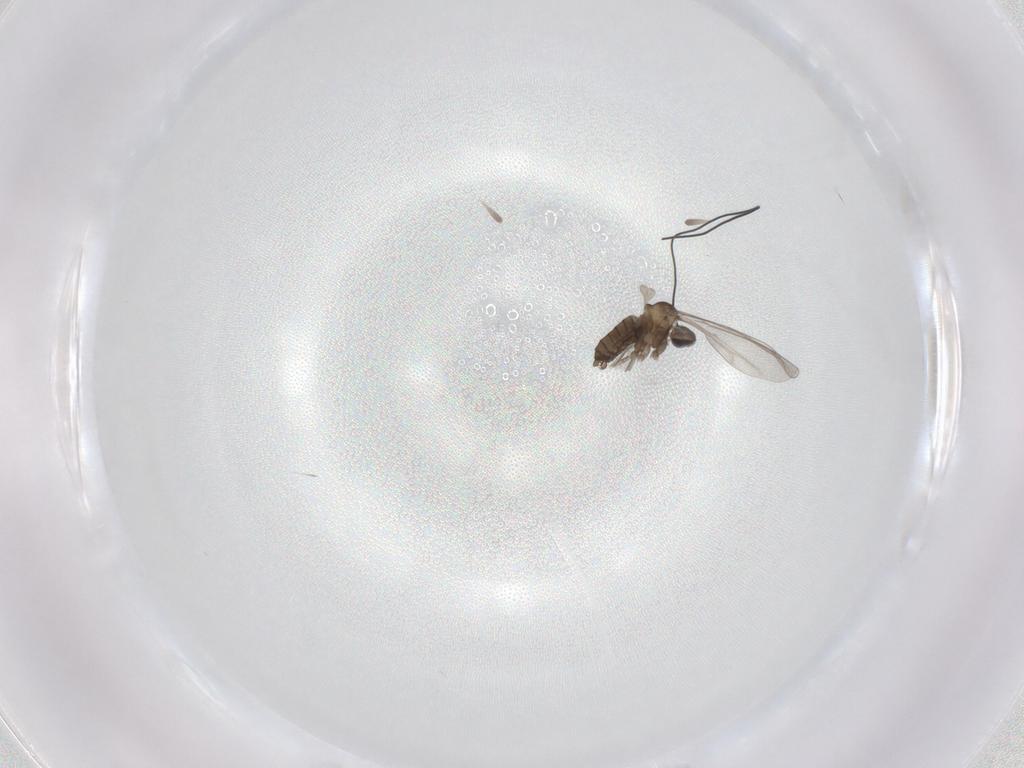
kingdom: Animalia
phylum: Arthropoda
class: Insecta
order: Diptera
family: Cecidomyiidae
